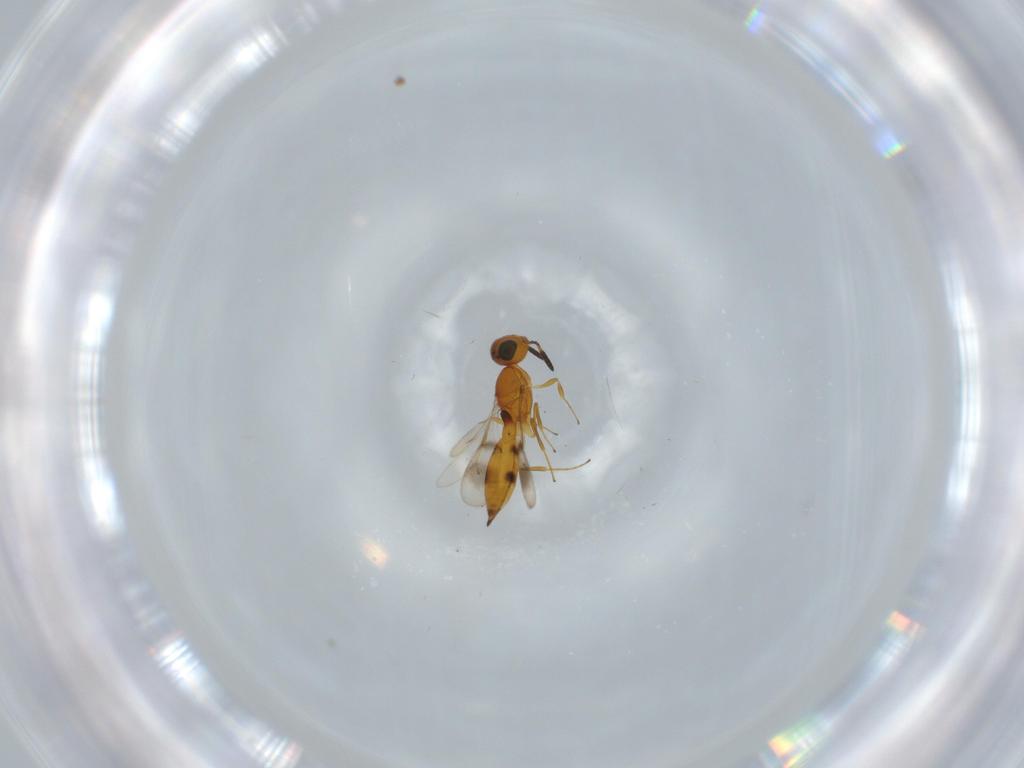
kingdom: Animalia
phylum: Arthropoda
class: Insecta
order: Hymenoptera
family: Scelionidae
